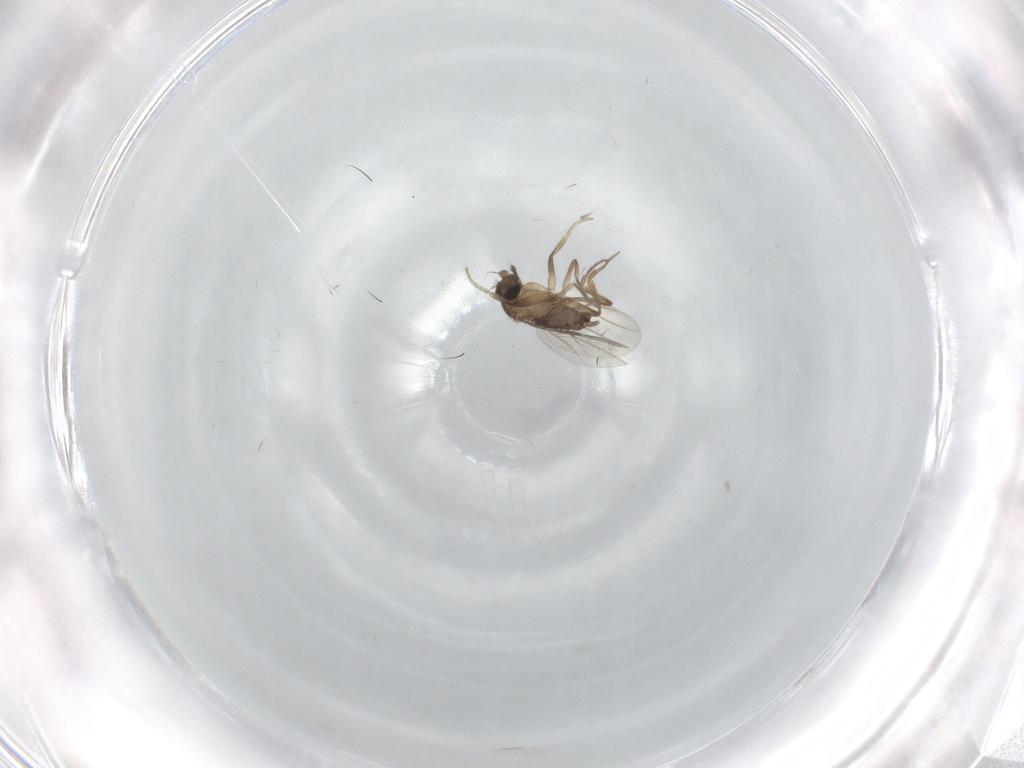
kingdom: Animalia
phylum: Arthropoda
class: Insecta
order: Diptera
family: Phoridae
